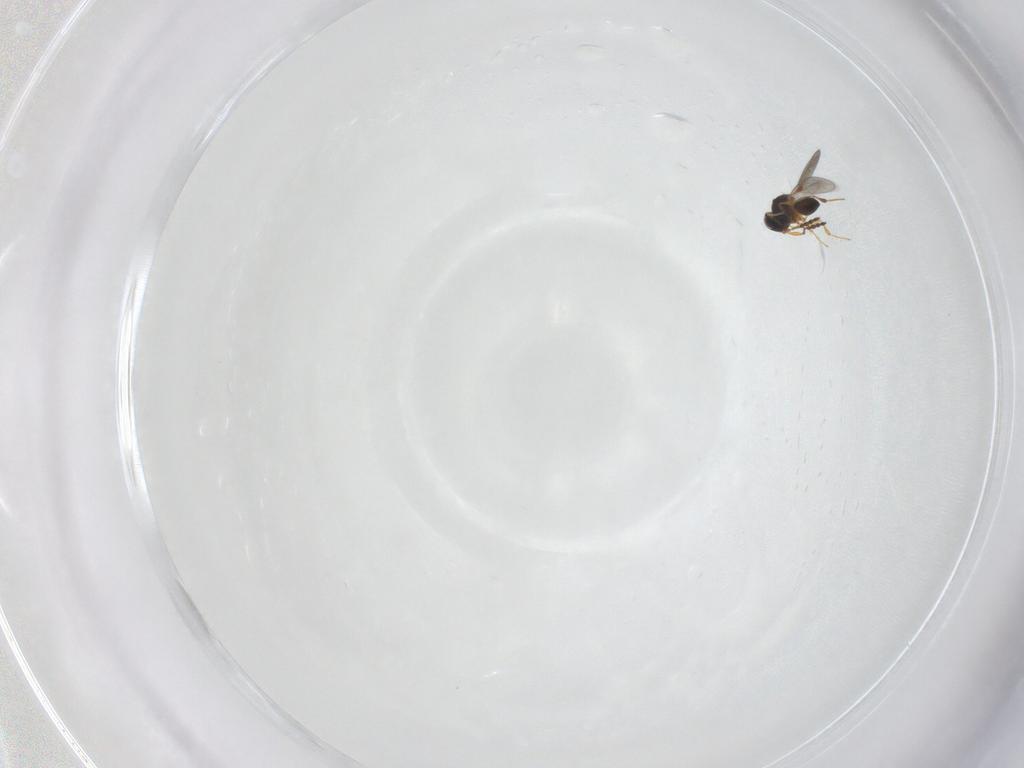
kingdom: Animalia
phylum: Arthropoda
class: Insecta
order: Hymenoptera
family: Platygastridae
